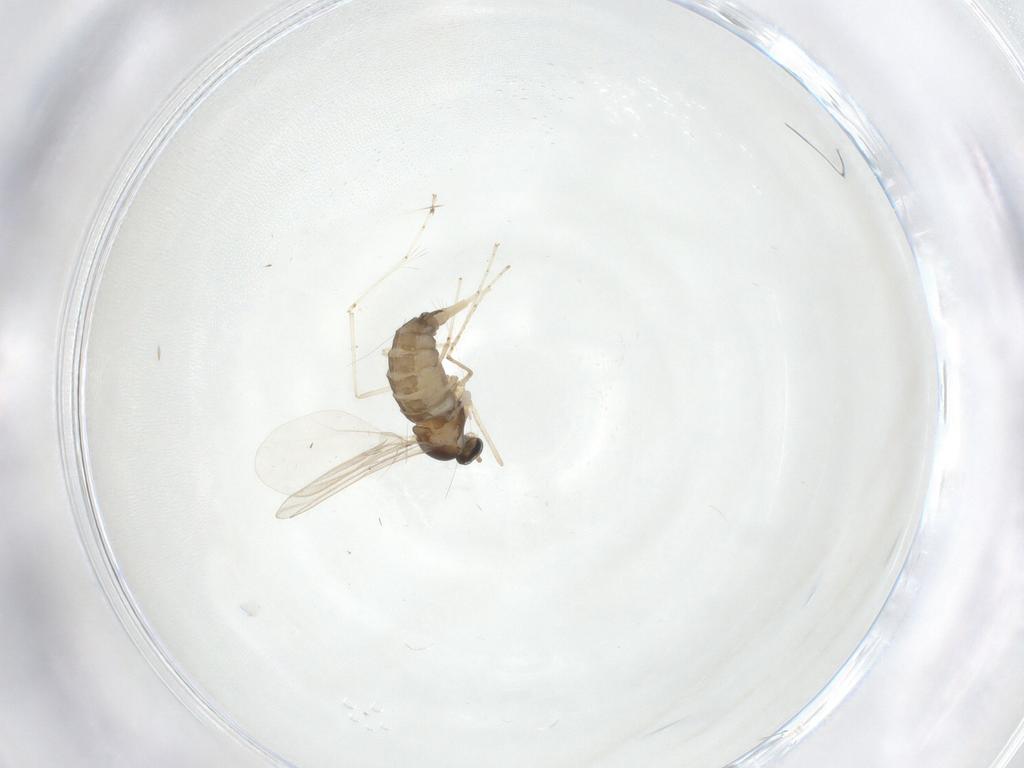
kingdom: Animalia
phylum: Arthropoda
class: Insecta
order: Diptera
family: Cecidomyiidae
